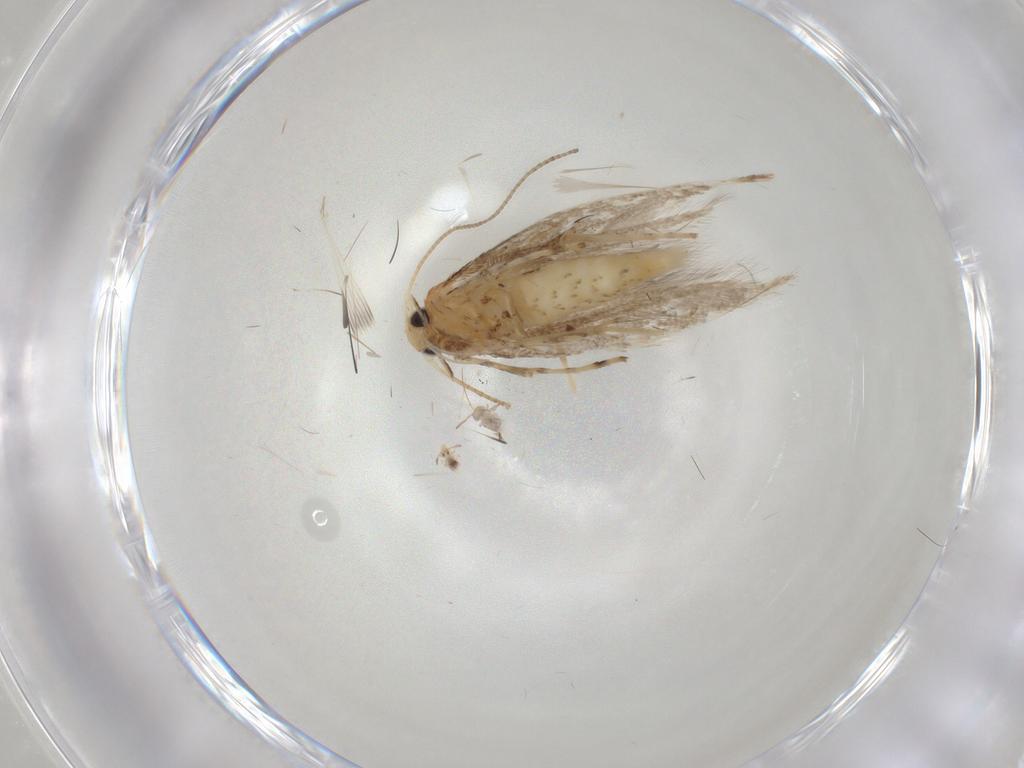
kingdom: Animalia
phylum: Arthropoda
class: Insecta
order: Lepidoptera
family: Gracillariidae
